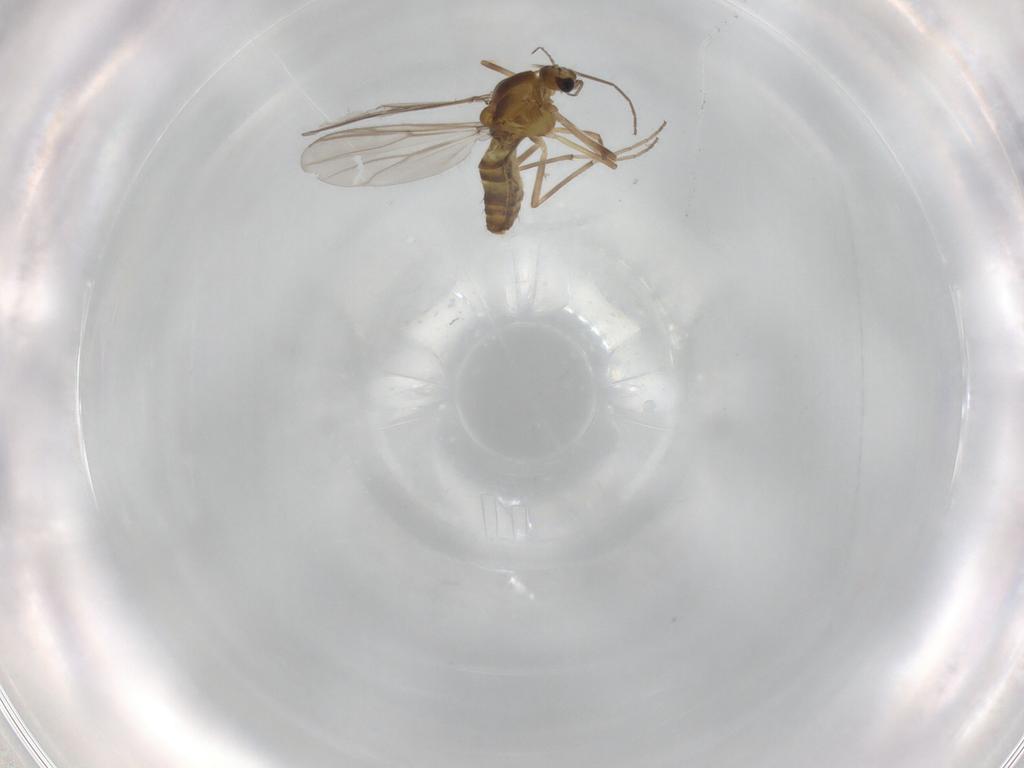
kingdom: Animalia
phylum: Arthropoda
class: Insecta
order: Diptera
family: Chironomidae
